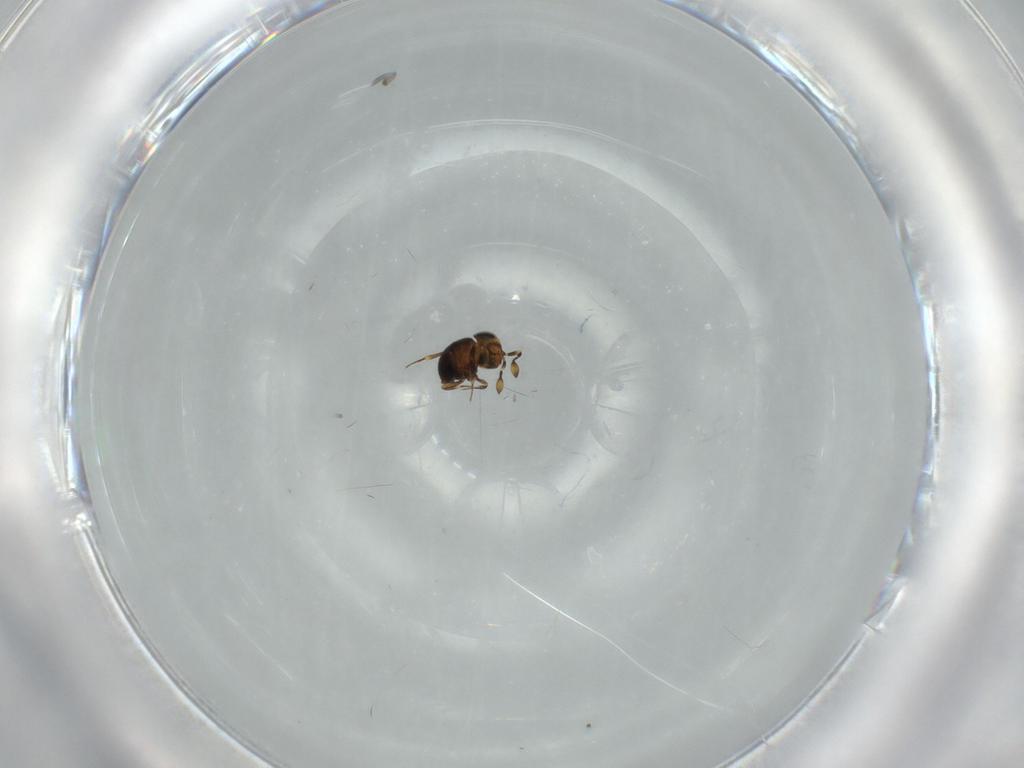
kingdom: Animalia
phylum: Arthropoda
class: Insecta
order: Hymenoptera
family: Scelionidae
